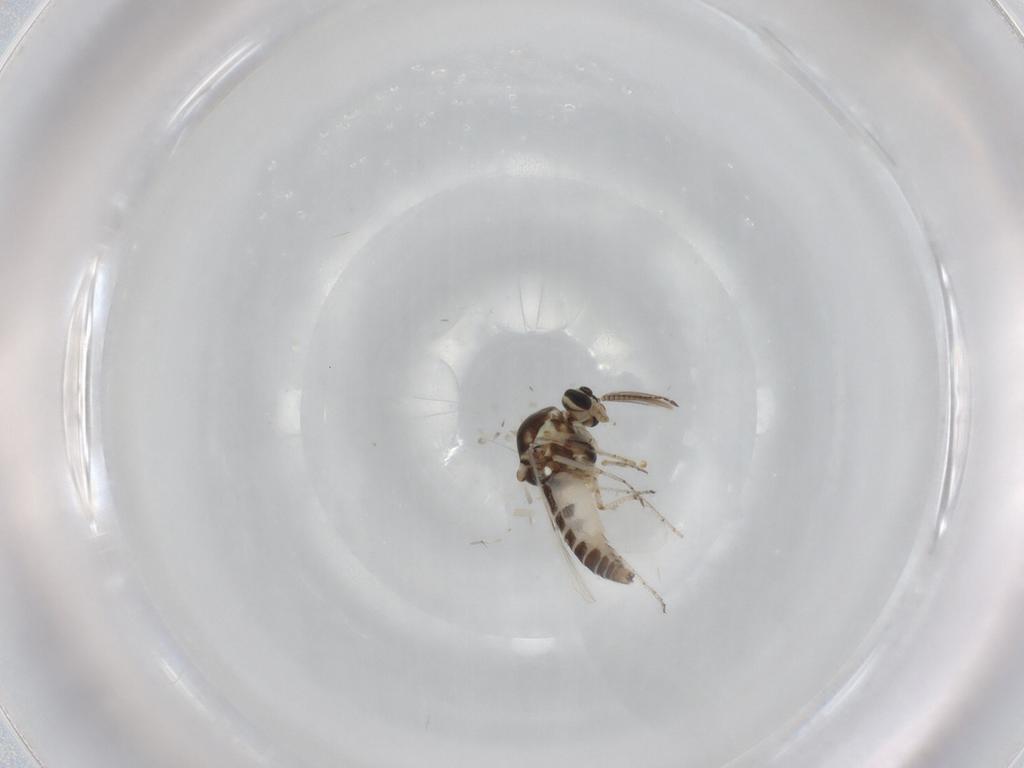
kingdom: Animalia
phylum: Arthropoda
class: Insecta
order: Diptera
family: Ceratopogonidae
